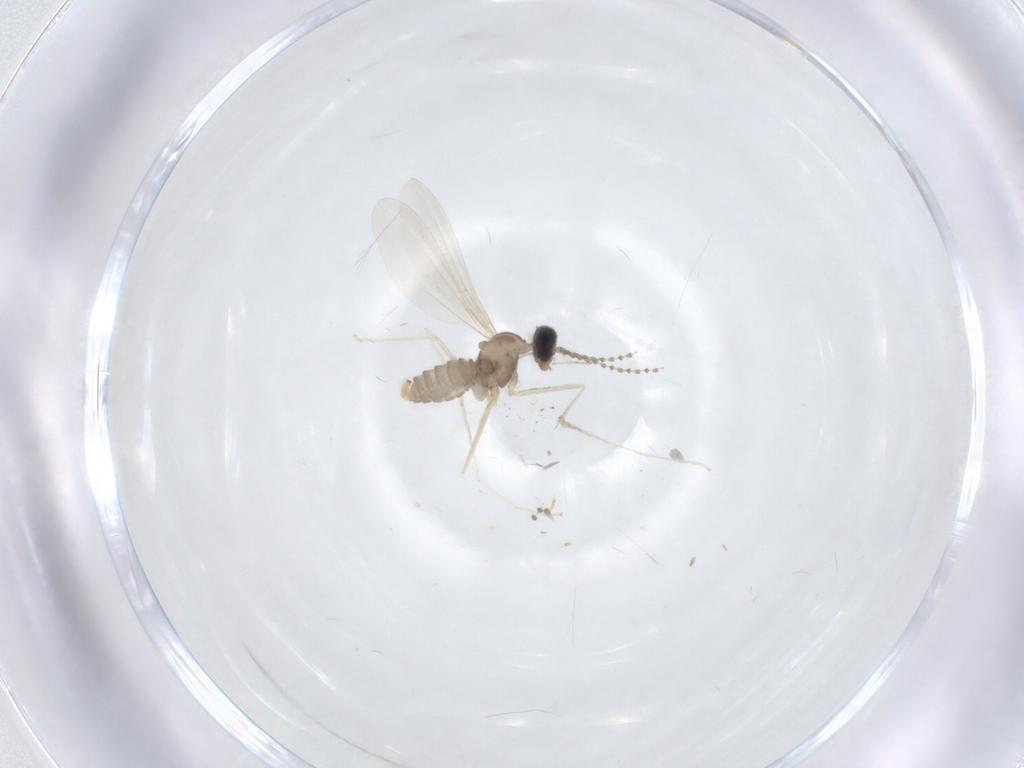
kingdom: Animalia
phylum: Arthropoda
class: Insecta
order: Diptera
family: Cecidomyiidae
